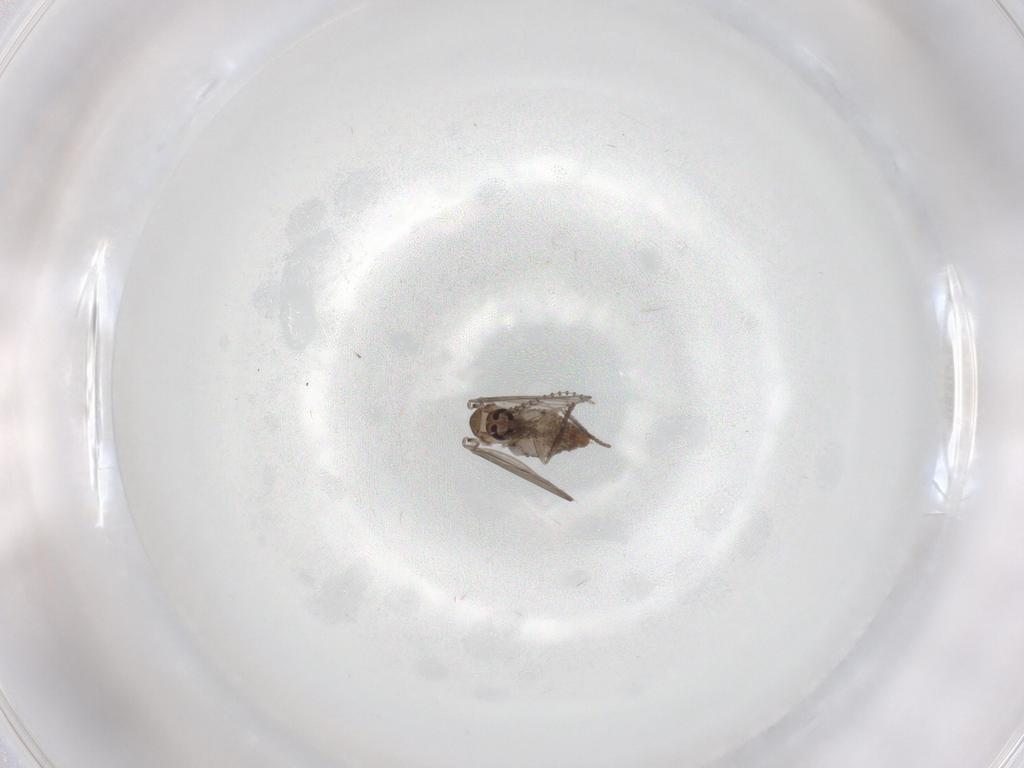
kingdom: Animalia
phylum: Arthropoda
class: Insecta
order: Diptera
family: Psychodidae
